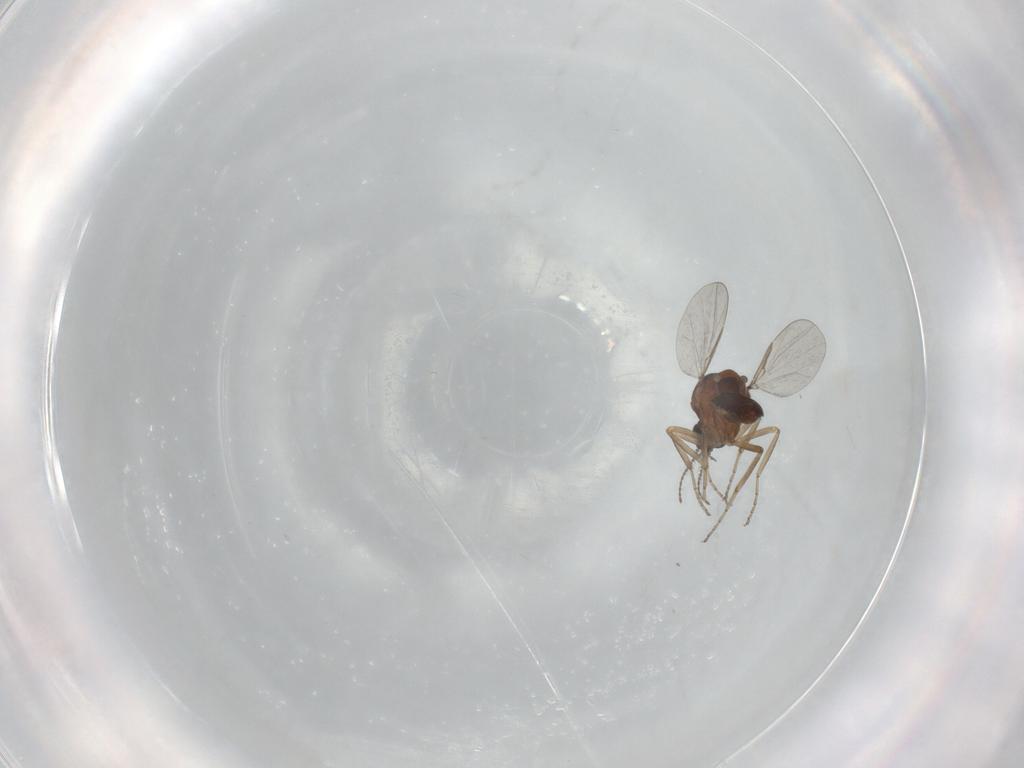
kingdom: Animalia
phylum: Arthropoda
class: Insecta
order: Diptera
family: Ceratopogonidae
